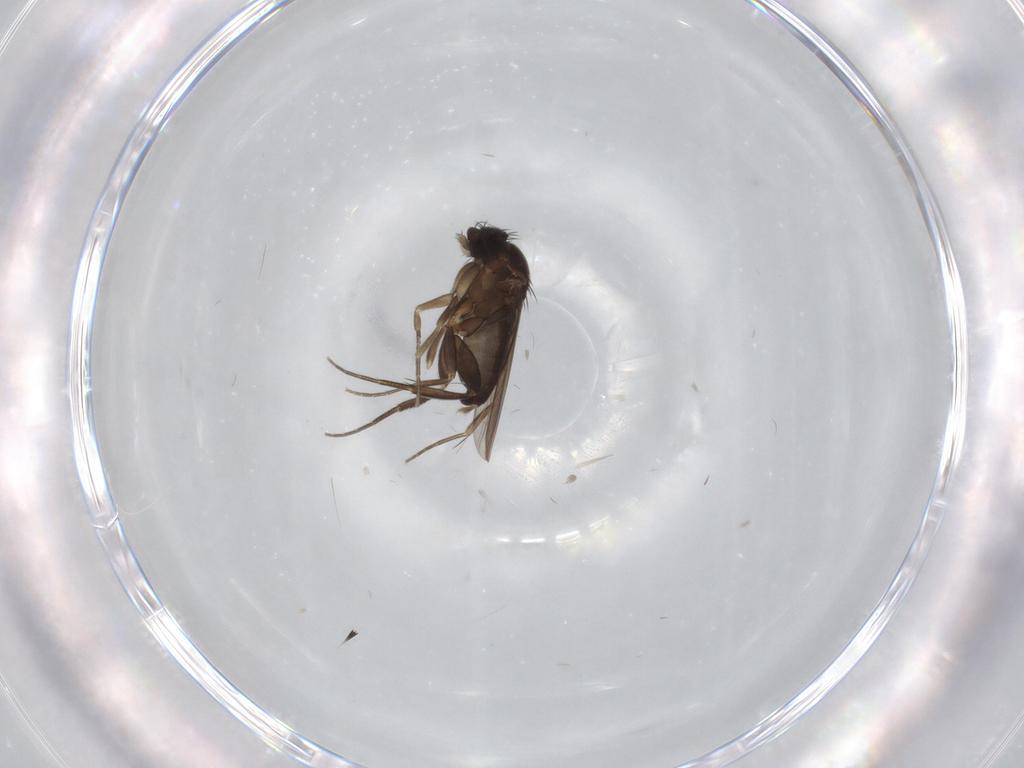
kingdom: Animalia
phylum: Arthropoda
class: Insecta
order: Diptera
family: Phoridae
